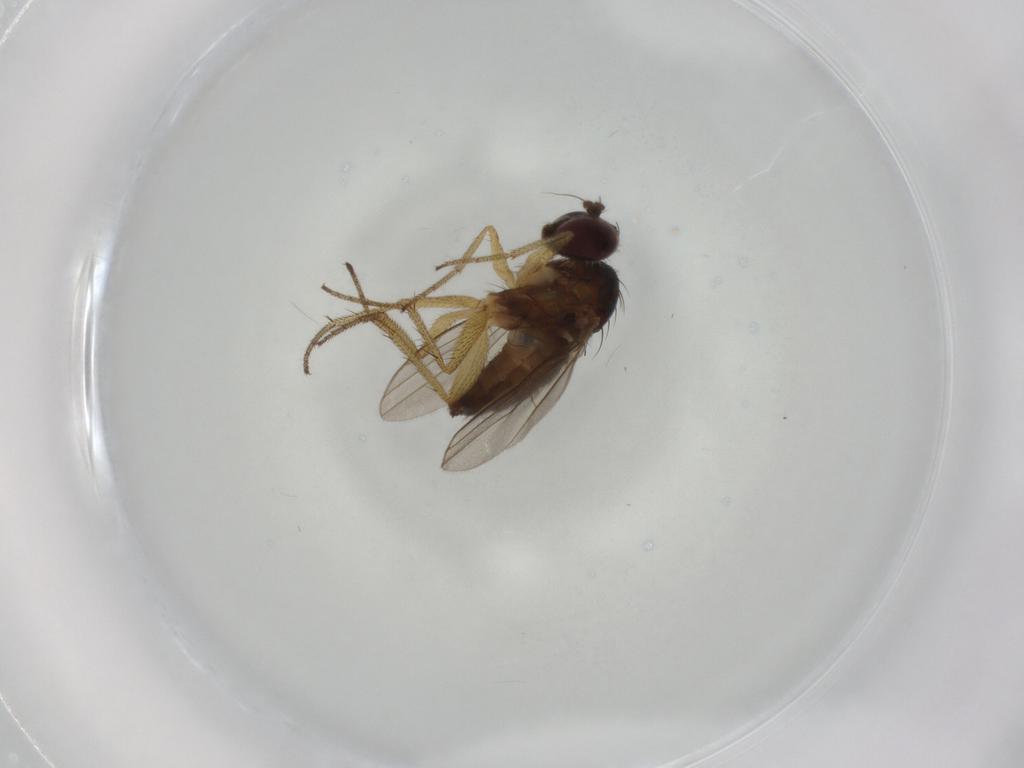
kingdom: Animalia
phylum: Arthropoda
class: Insecta
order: Diptera
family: Dolichopodidae
